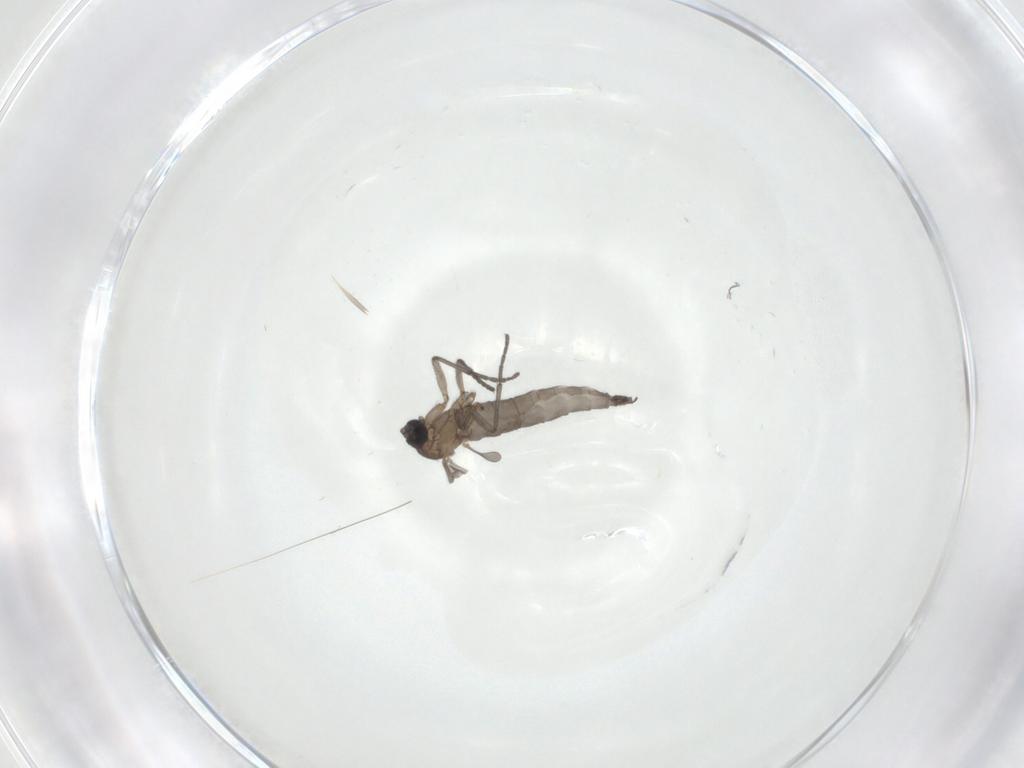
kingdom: Animalia
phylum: Arthropoda
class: Insecta
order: Diptera
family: Sciaridae
